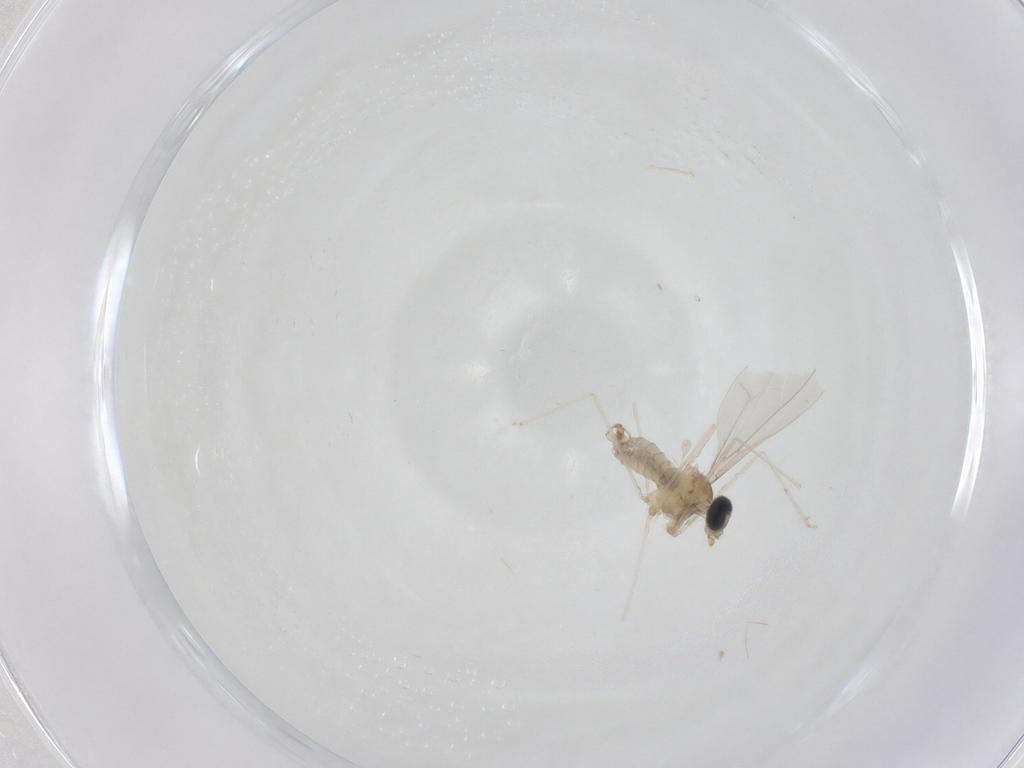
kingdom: Animalia
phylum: Arthropoda
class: Insecta
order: Diptera
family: Cecidomyiidae
